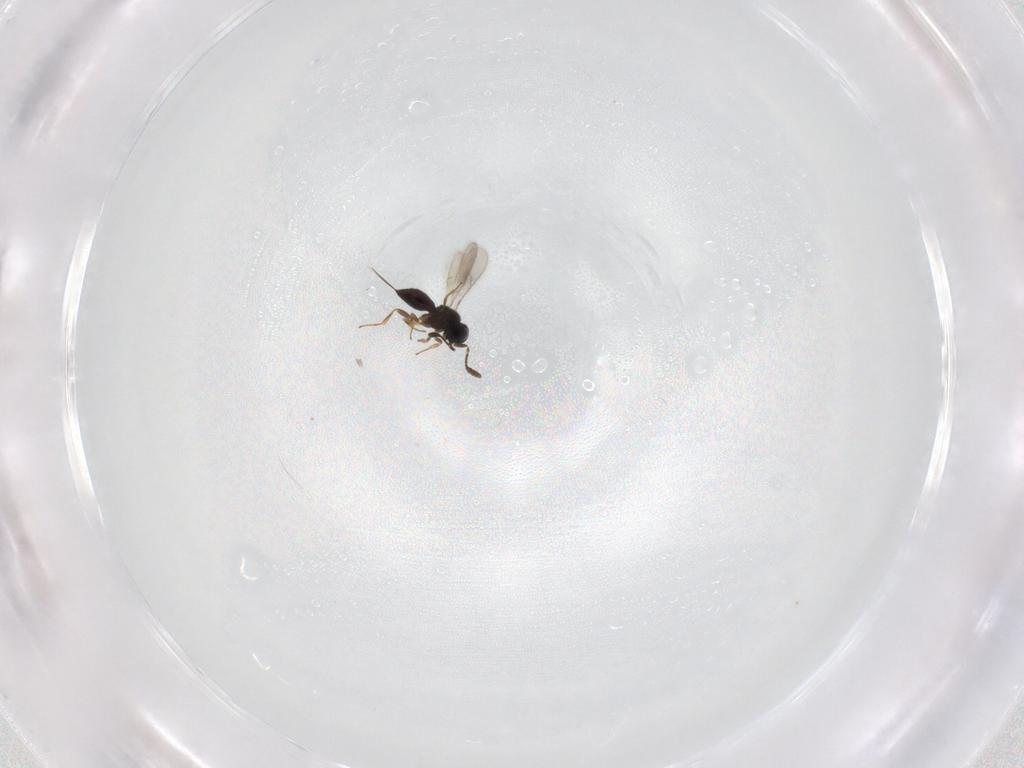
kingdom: Animalia
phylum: Arthropoda
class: Insecta
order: Hymenoptera
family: Scelionidae
